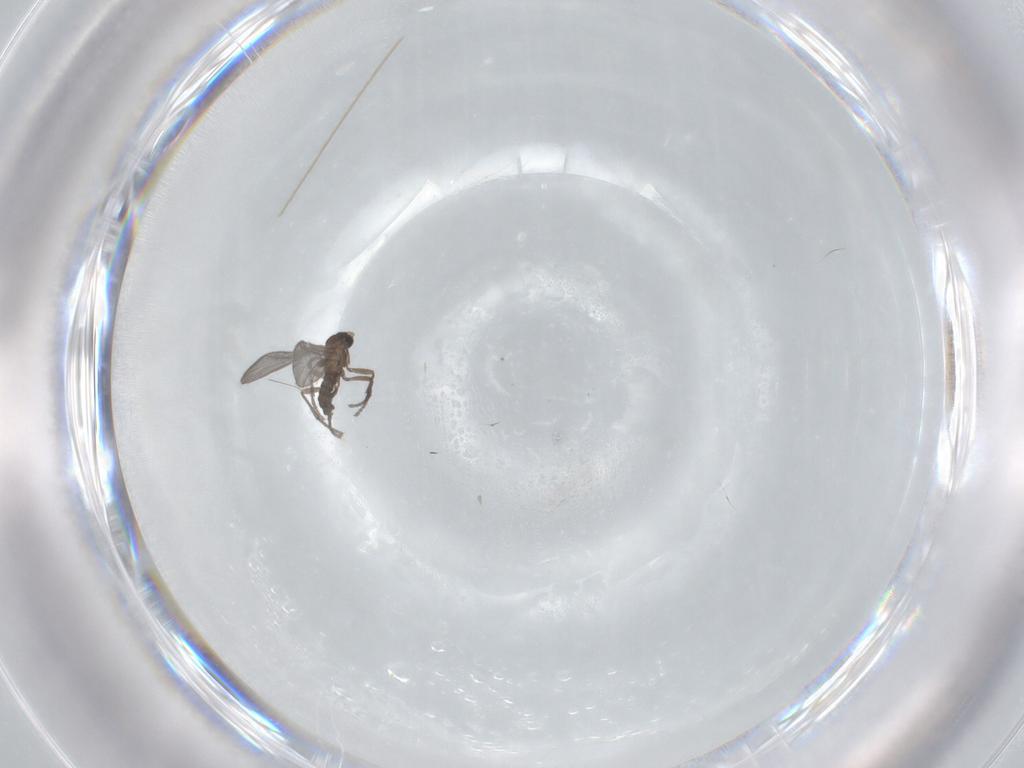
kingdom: Animalia
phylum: Arthropoda
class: Insecta
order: Diptera
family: Sciaridae
